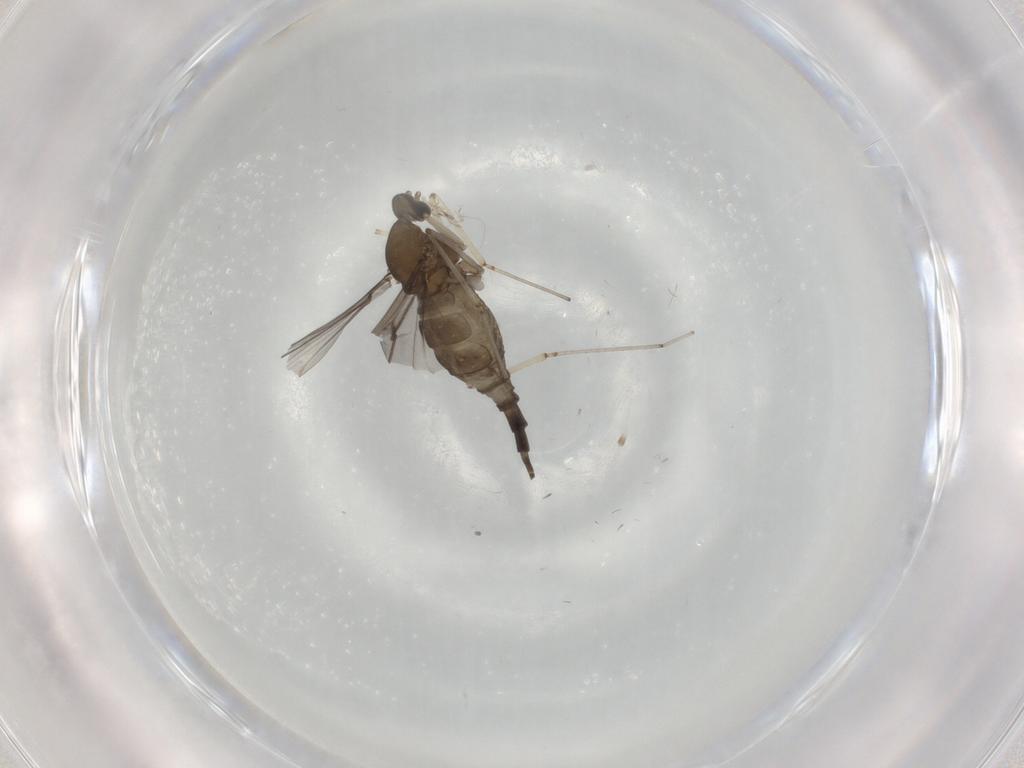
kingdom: Animalia
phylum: Arthropoda
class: Insecta
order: Diptera
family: Cecidomyiidae
